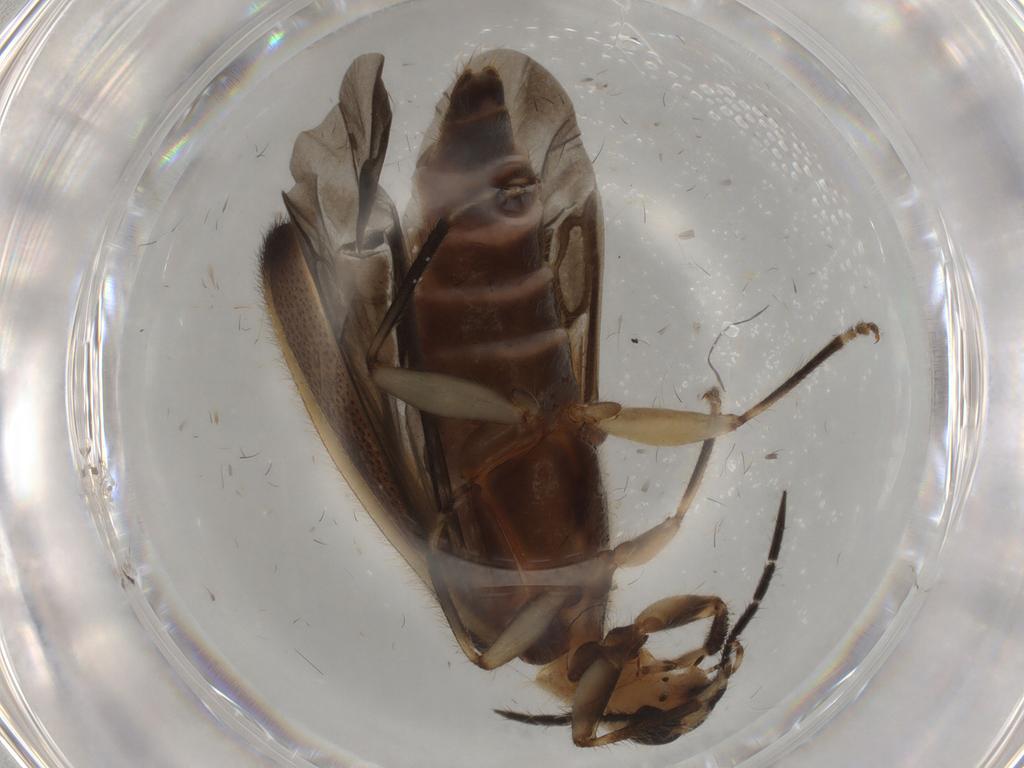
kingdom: Animalia
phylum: Arthropoda
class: Insecta
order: Coleoptera
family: Cleridae
